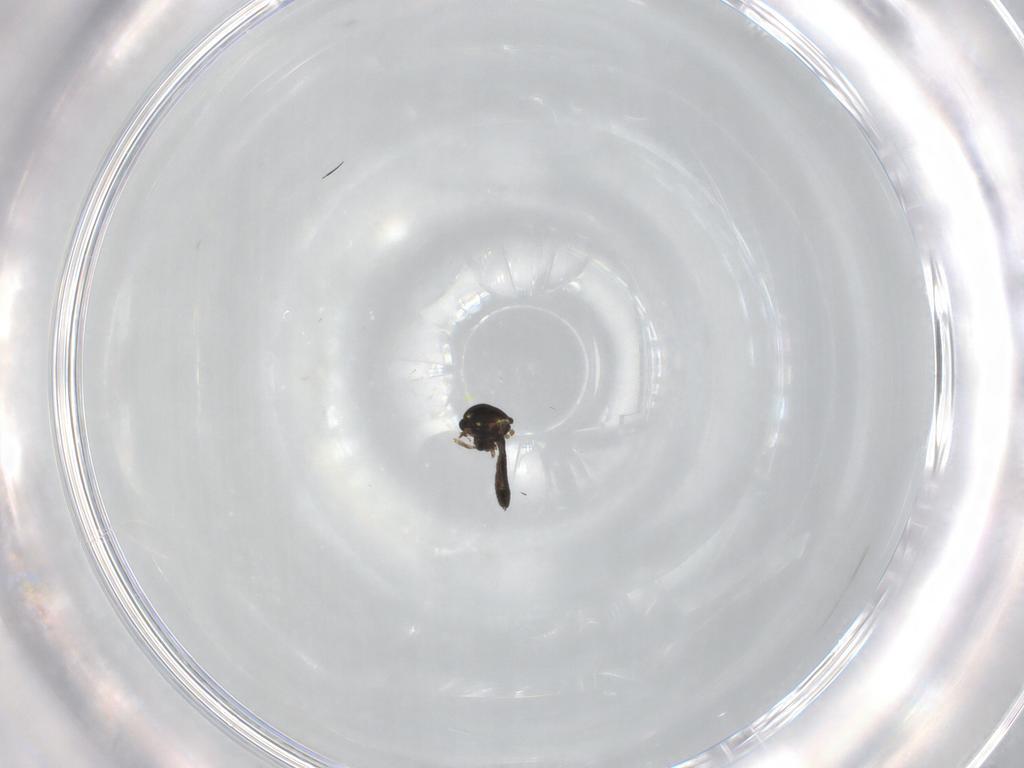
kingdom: Animalia
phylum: Arthropoda
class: Insecta
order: Diptera
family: Ceratopogonidae
